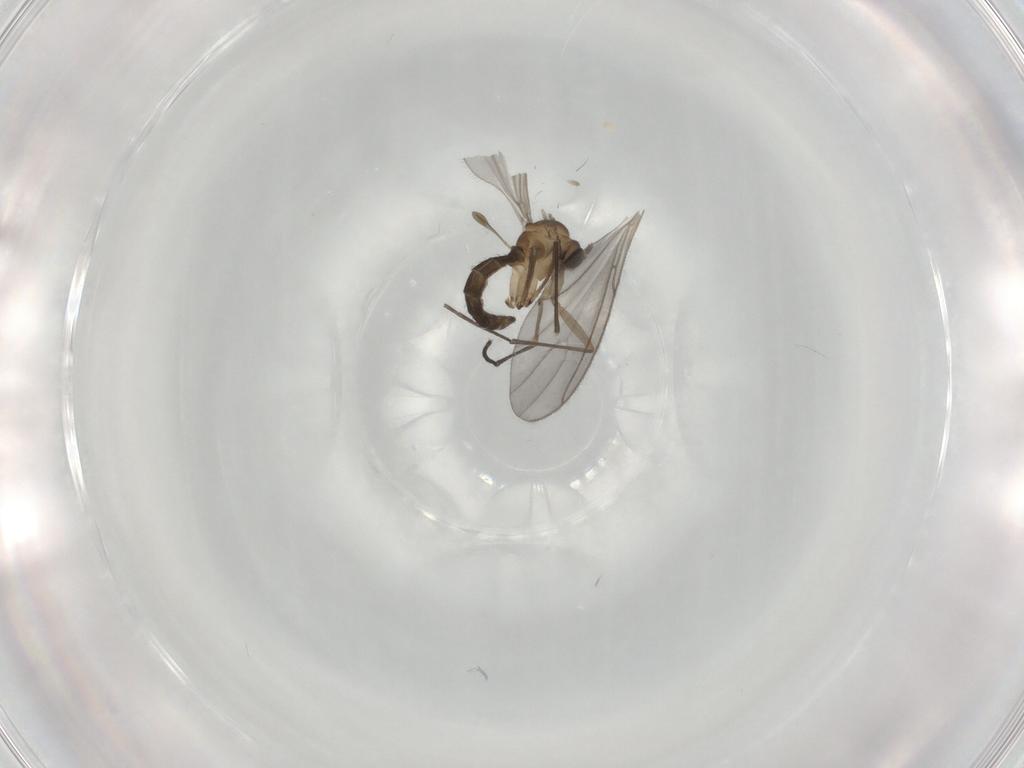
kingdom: Animalia
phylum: Arthropoda
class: Insecta
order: Diptera
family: Sciaridae
